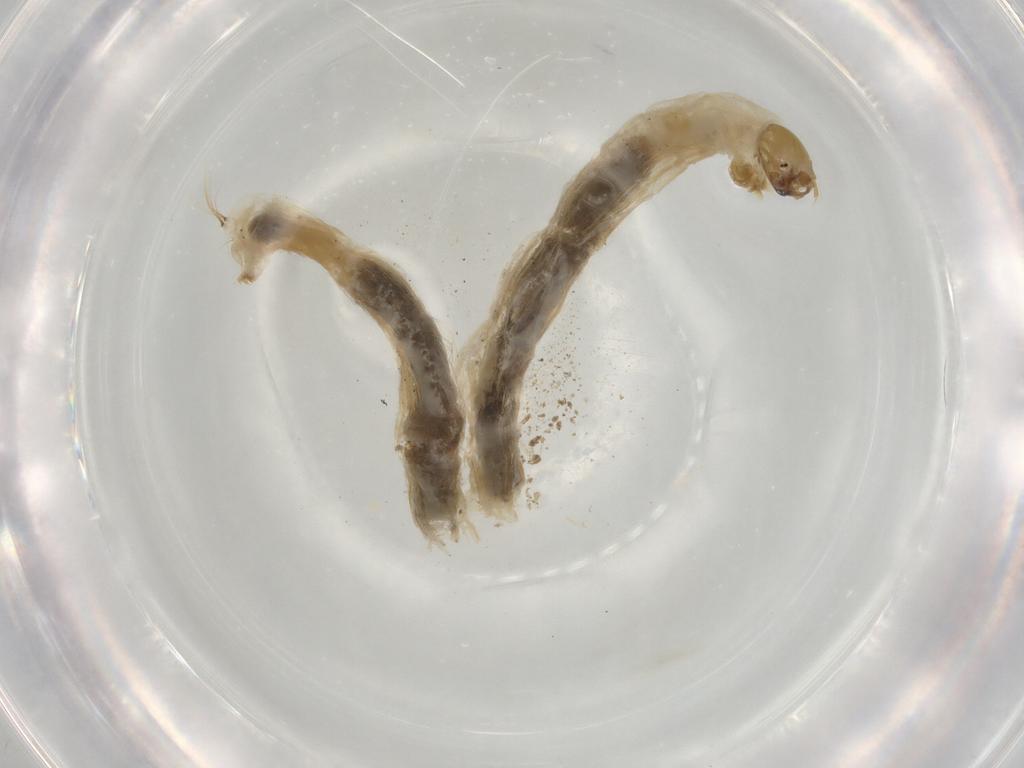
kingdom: Animalia
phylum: Arthropoda
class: Insecta
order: Diptera
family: Chironomidae
